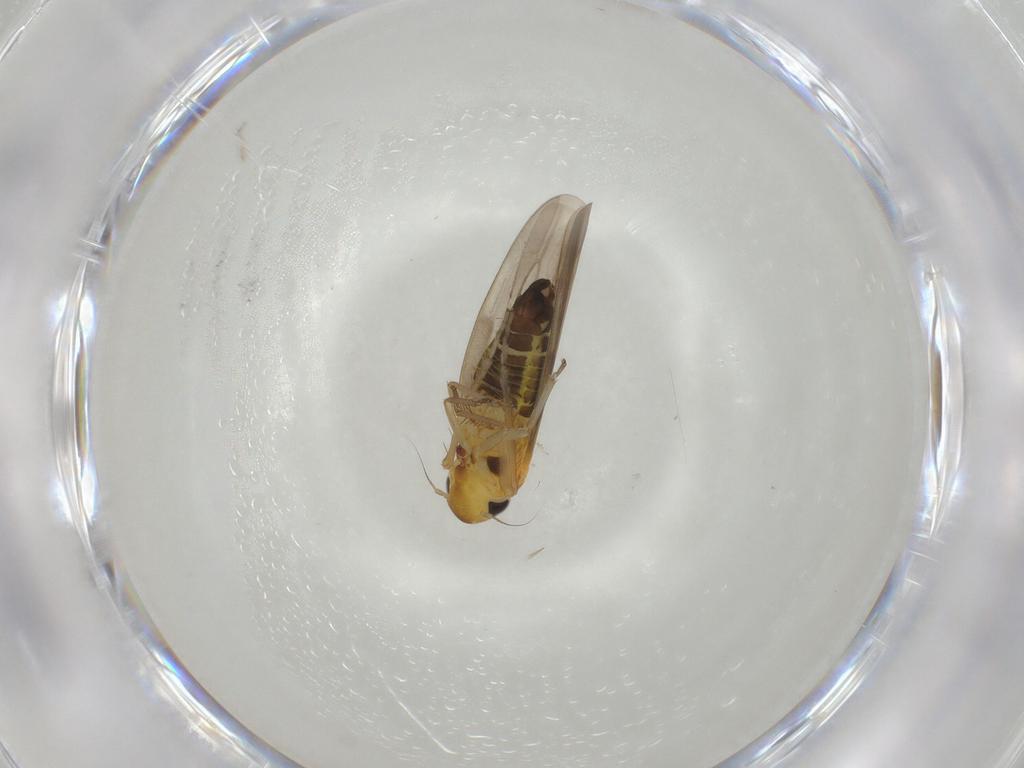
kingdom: Animalia
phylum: Arthropoda
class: Insecta
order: Hemiptera
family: Cicadellidae
